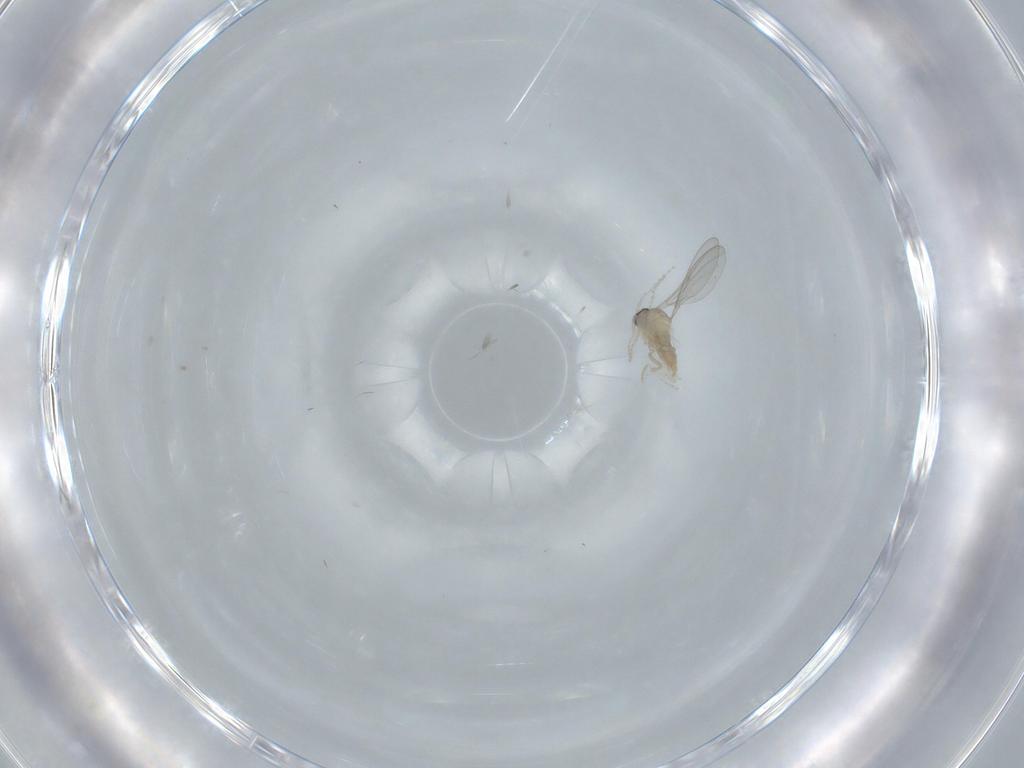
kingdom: Animalia
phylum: Arthropoda
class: Insecta
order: Diptera
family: Cecidomyiidae
